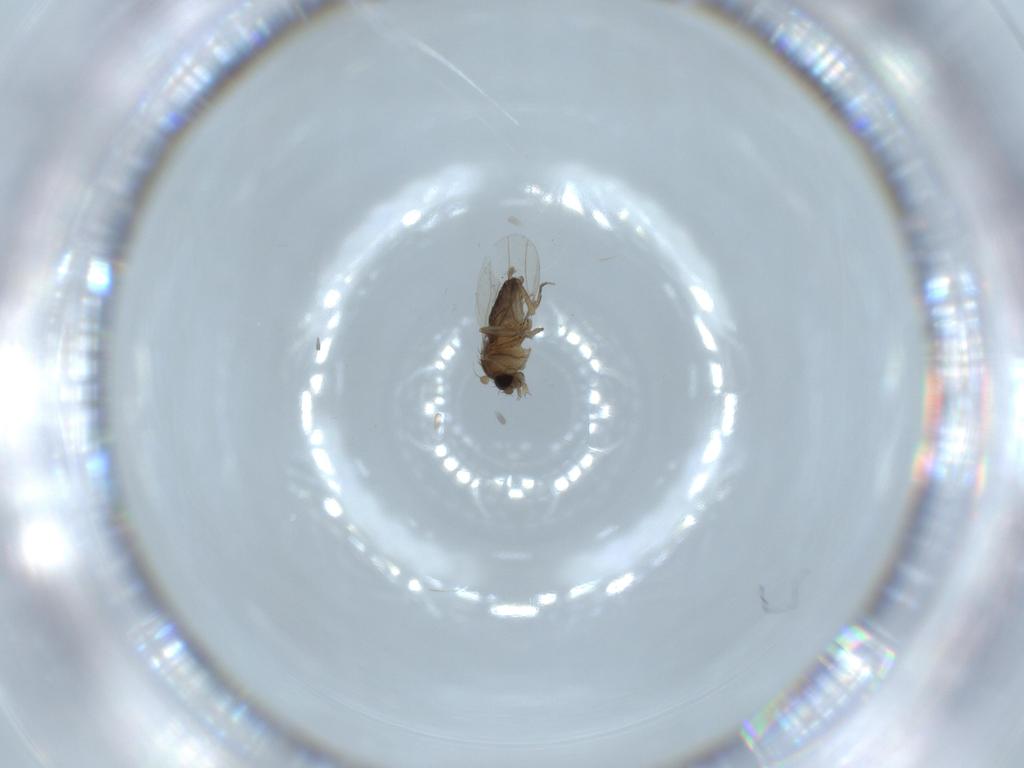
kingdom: Animalia
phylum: Arthropoda
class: Insecta
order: Diptera
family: Phoridae
